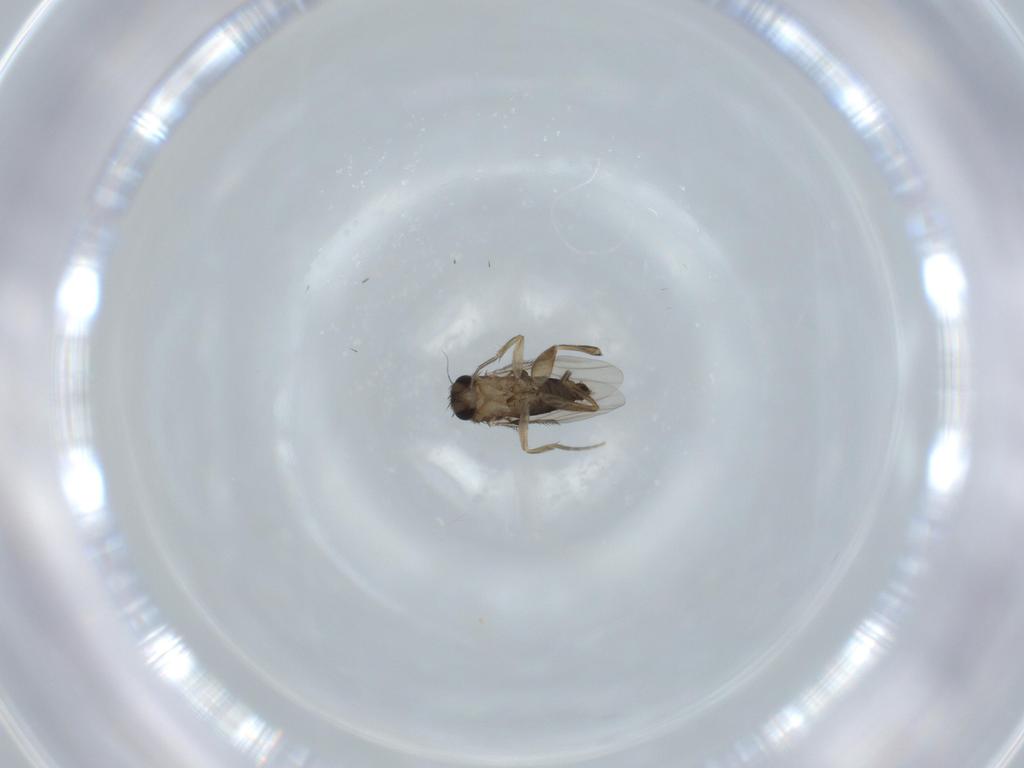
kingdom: Animalia
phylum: Arthropoda
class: Insecta
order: Diptera
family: Phoridae
